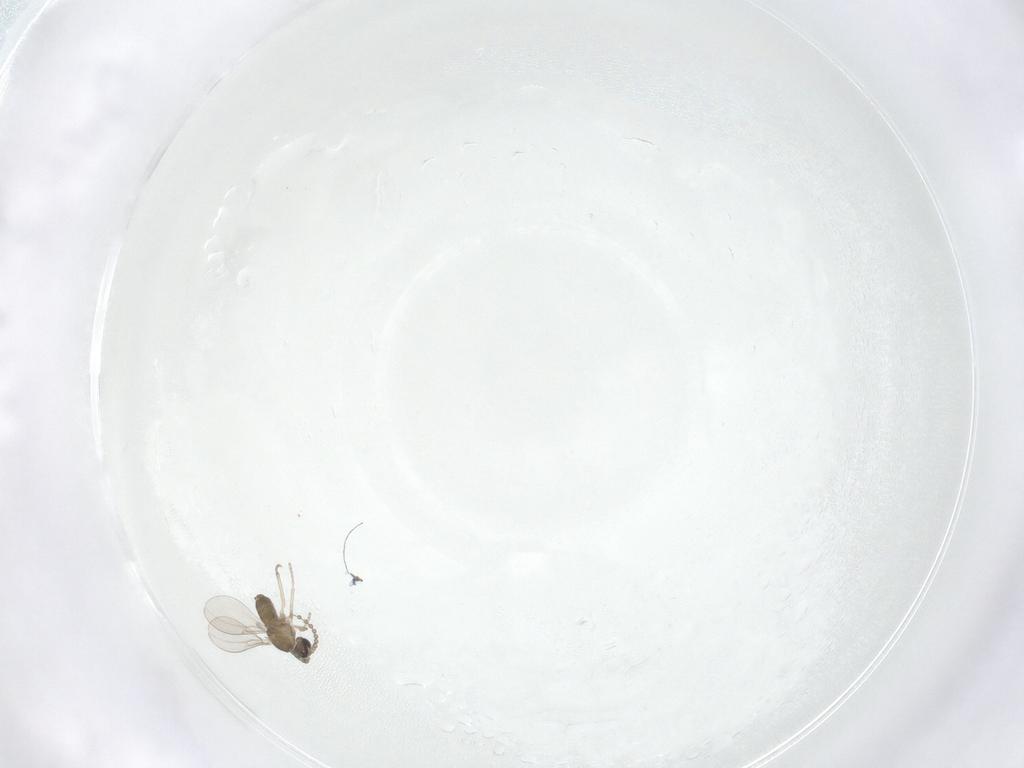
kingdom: Animalia
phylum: Arthropoda
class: Insecta
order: Diptera
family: Cecidomyiidae
